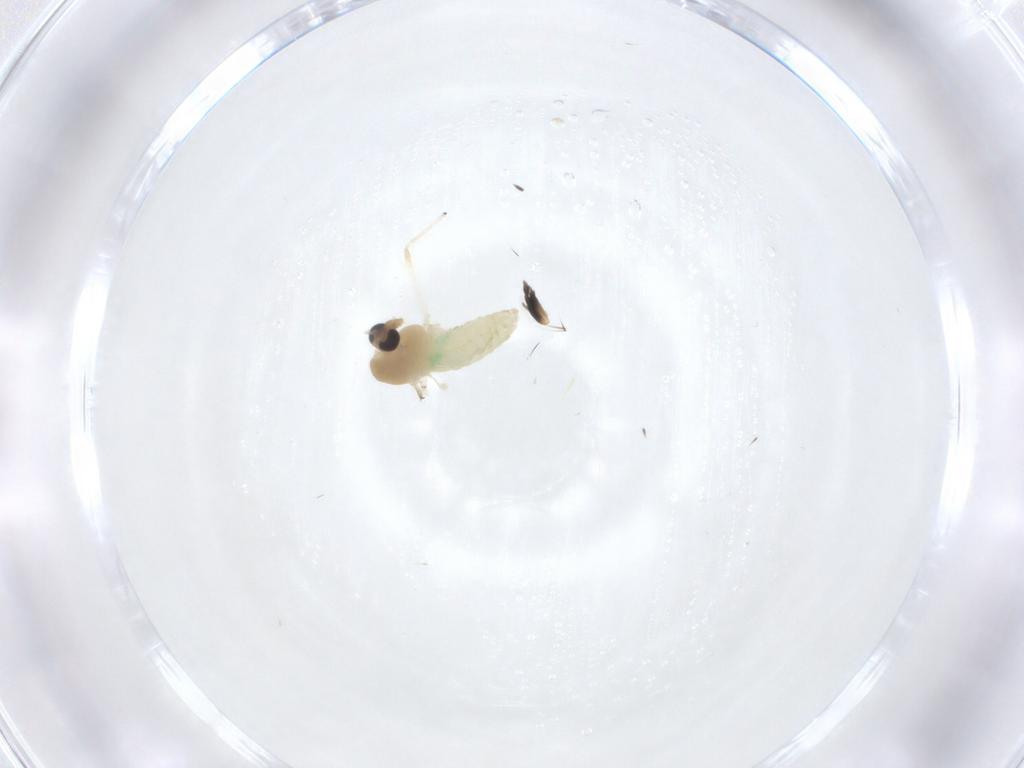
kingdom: Animalia
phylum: Arthropoda
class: Insecta
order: Diptera
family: Chironomidae
